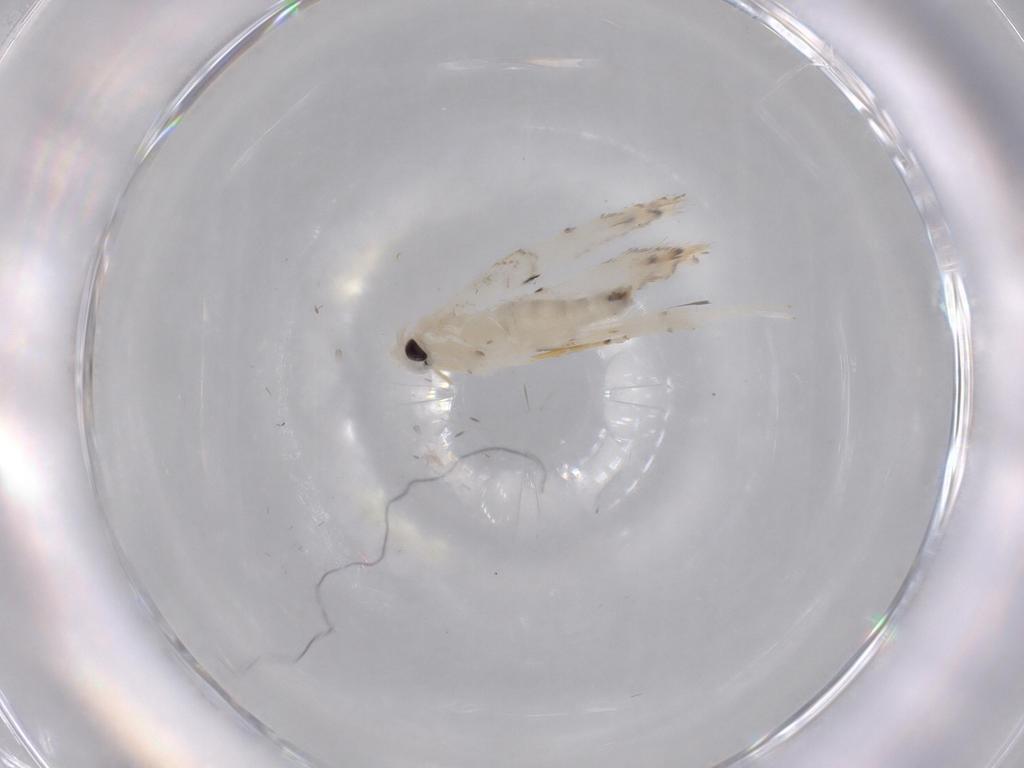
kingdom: Animalia
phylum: Arthropoda
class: Insecta
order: Lepidoptera
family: Gracillariidae
